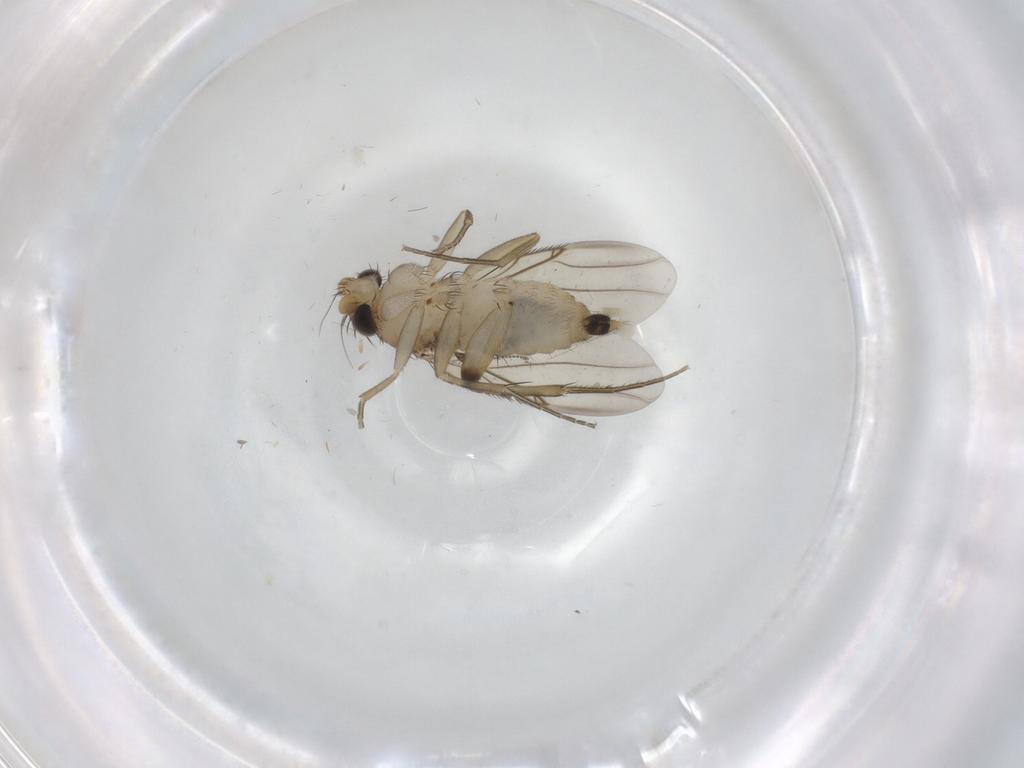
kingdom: Animalia
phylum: Arthropoda
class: Insecta
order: Diptera
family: Phoridae
